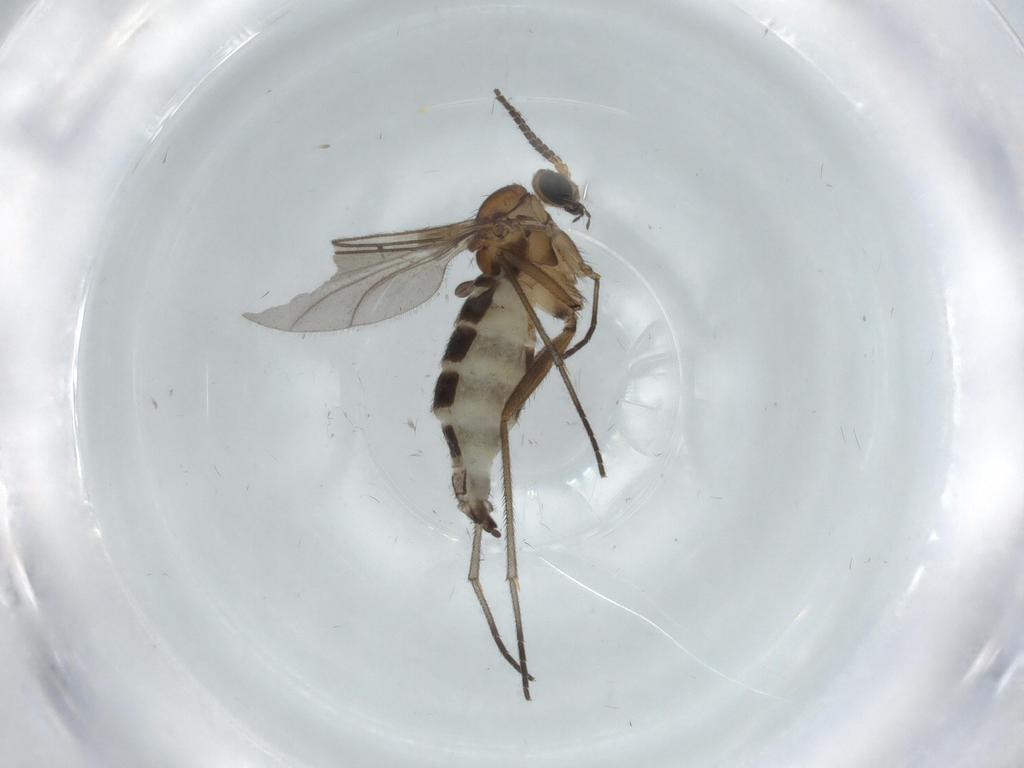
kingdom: Animalia
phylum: Arthropoda
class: Insecta
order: Diptera
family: Sciaridae
